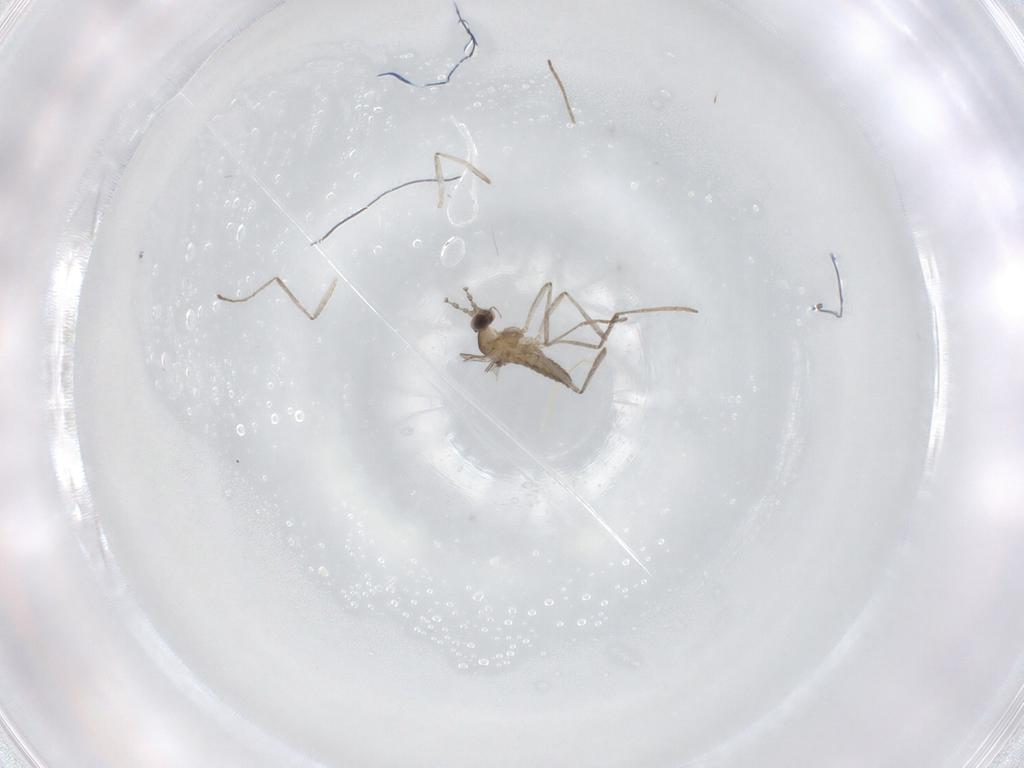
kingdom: Animalia
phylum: Arthropoda
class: Insecta
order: Diptera
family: Cecidomyiidae
